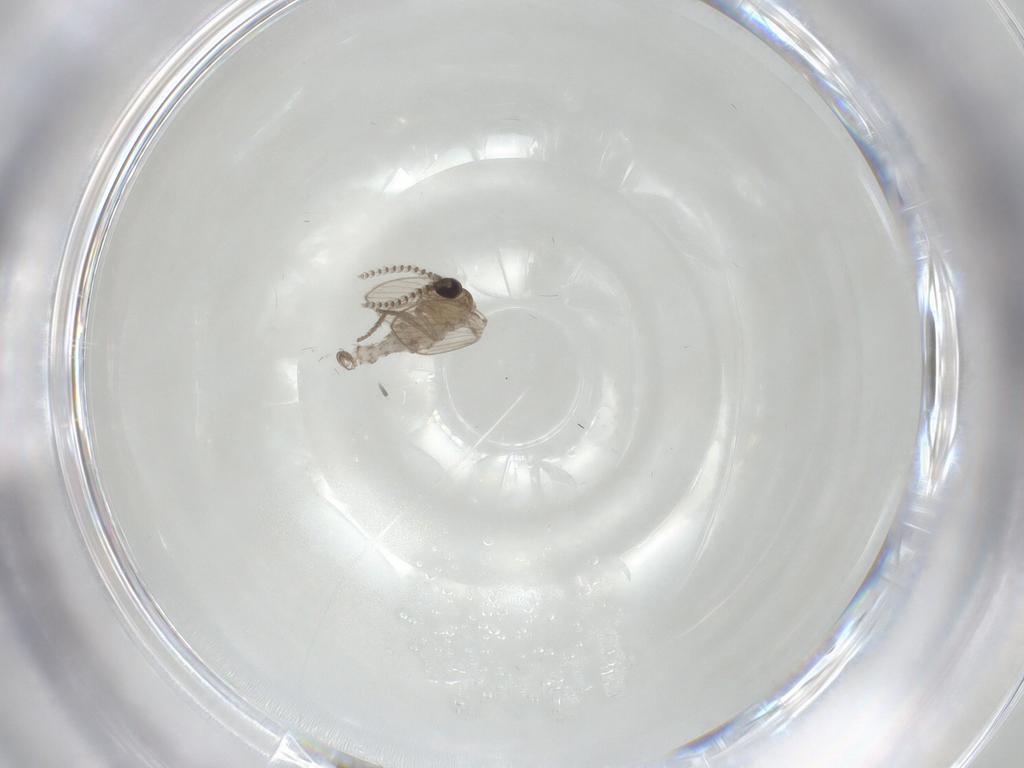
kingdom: Animalia
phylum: Arthropoda
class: Insecta
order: Diptera
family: Psychodidae
